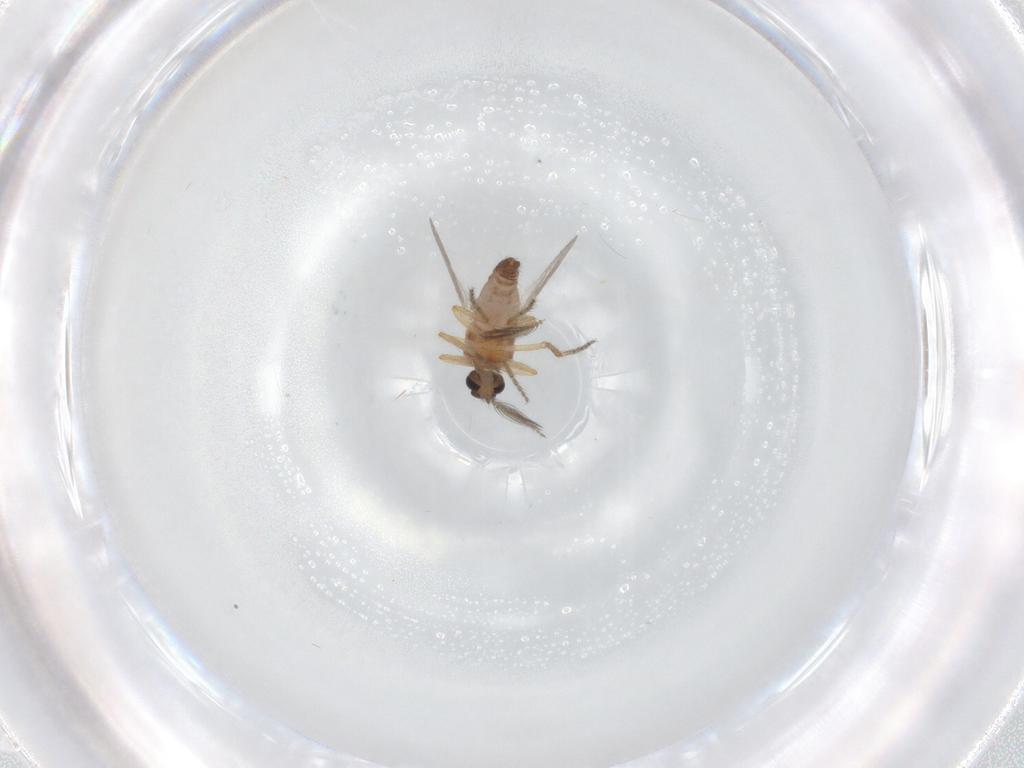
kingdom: Animalia
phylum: Arthropoda
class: Insecta
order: Diptera
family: Ceratopogonidae
